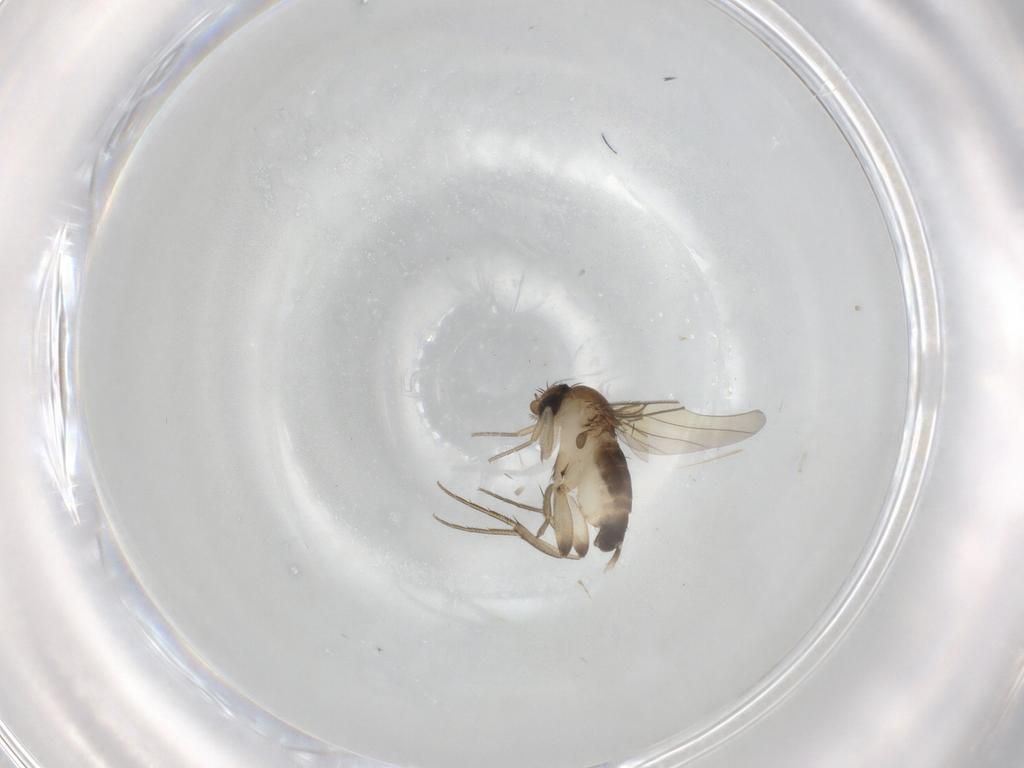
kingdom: Animalia
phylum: Arthropoda
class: Insecta
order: Diptera
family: Phoridae
